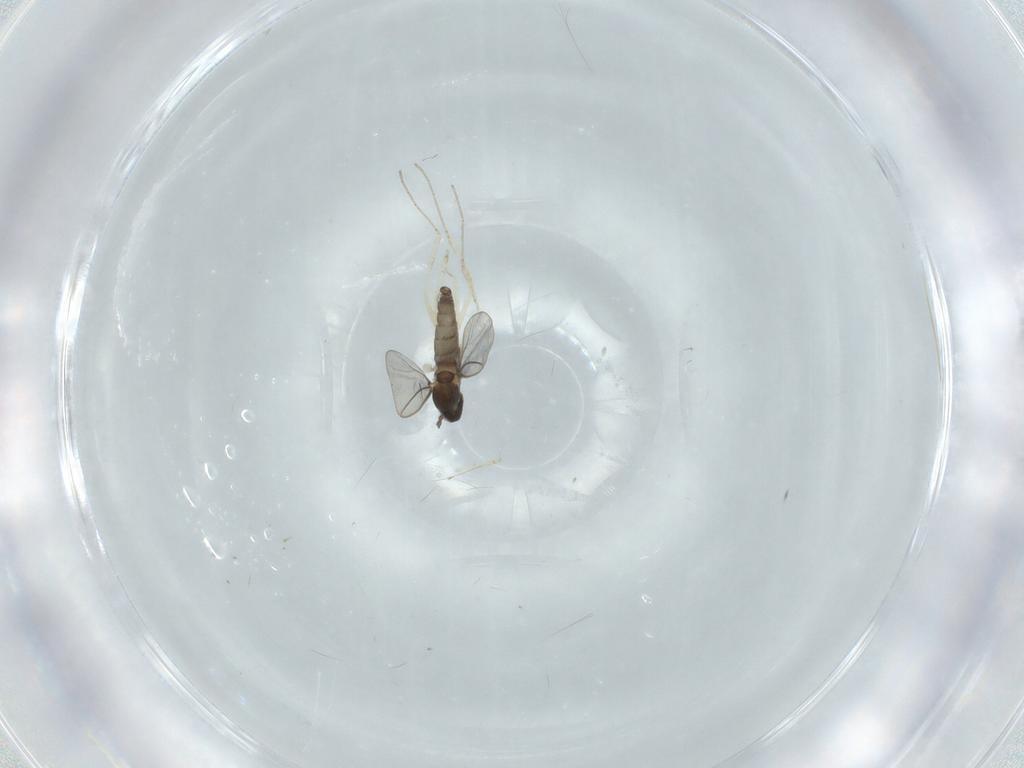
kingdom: Animalia
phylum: Arthropoda
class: Insecta
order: Diptera
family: Cecidomyiidae
